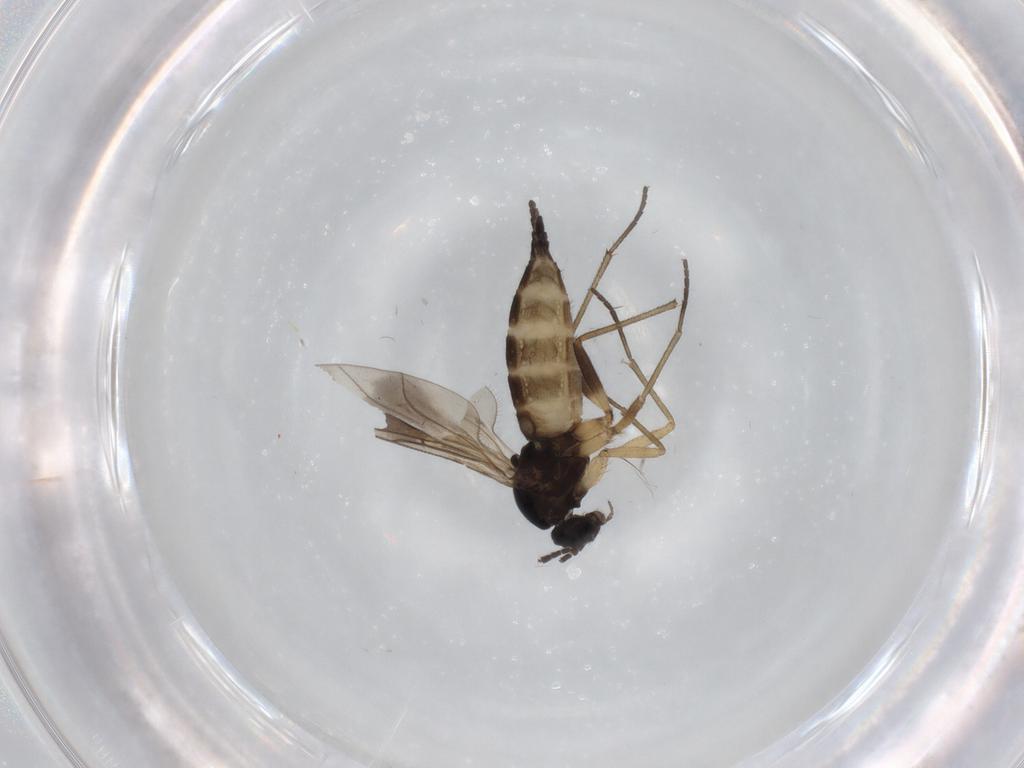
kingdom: Animalia
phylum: Arthropoda
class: Insecta
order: Diptera
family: Sciaridae
